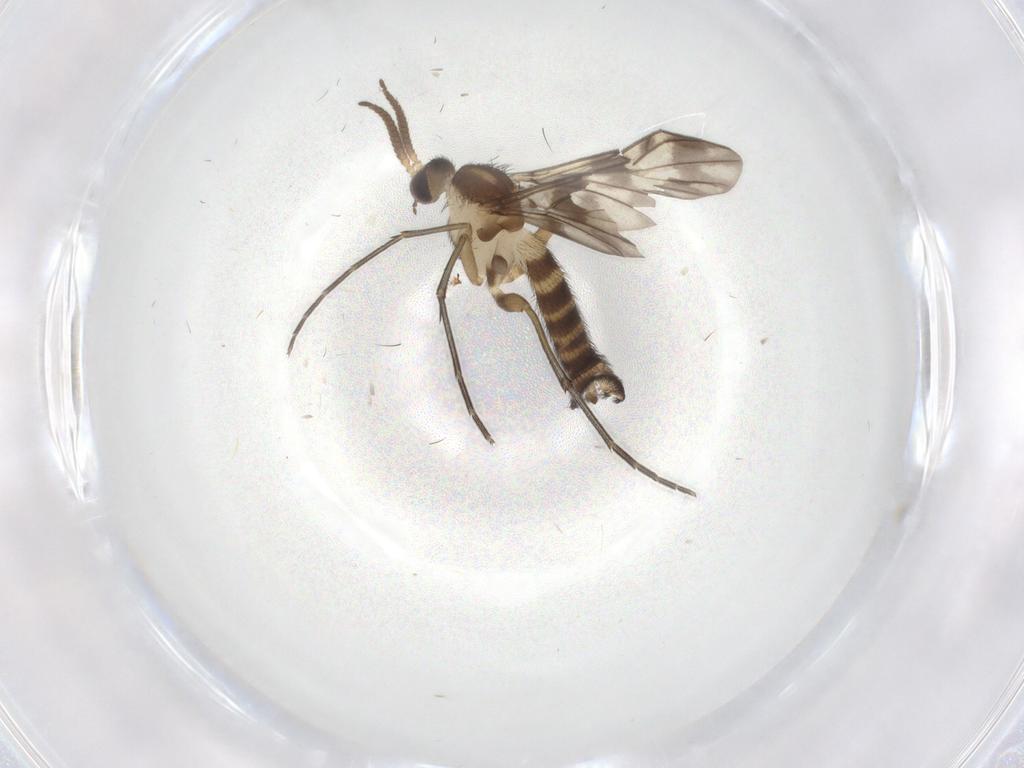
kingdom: Animalia
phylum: Arthropoda
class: Insecta
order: Diptera
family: Keroplatidae
